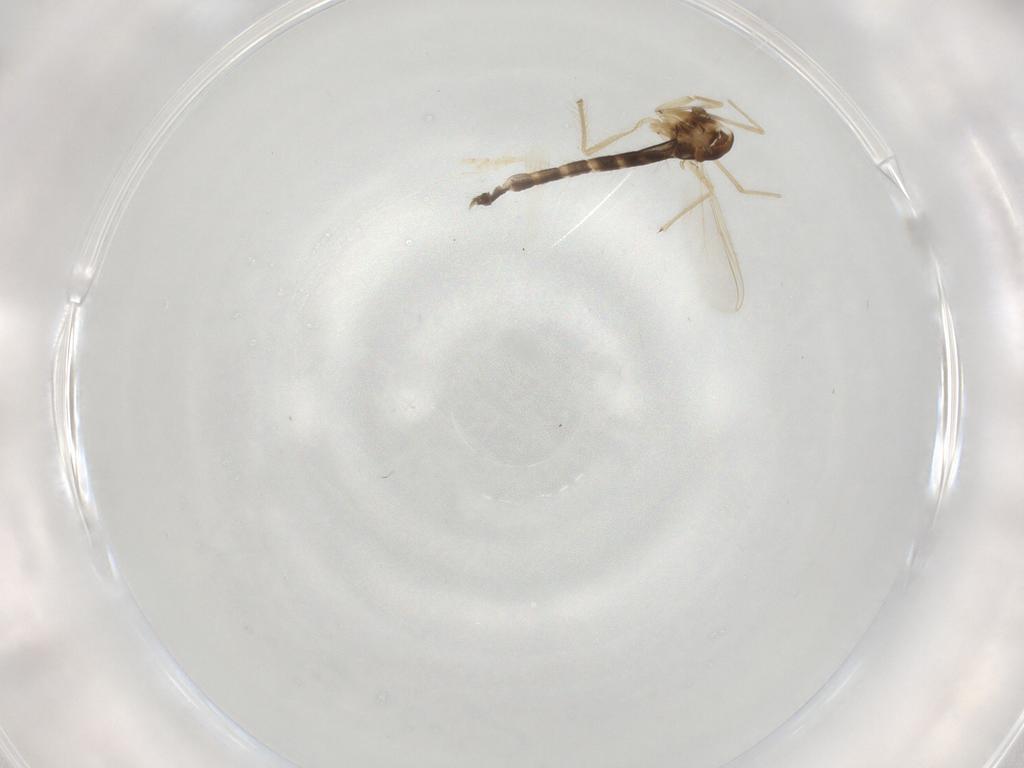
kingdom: Animalia
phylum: Arthropoda
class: Insecta
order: Diptera
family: Chironomidae
